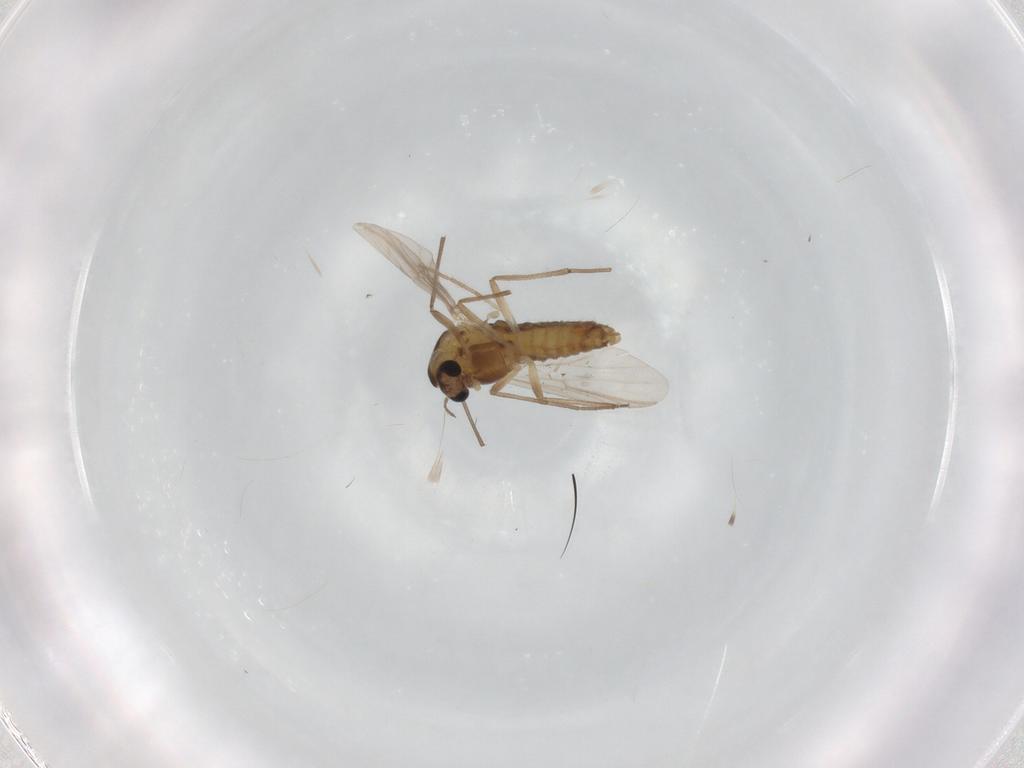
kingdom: Animalia
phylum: Arthropoda
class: Insecta
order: Diptera
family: Chironomidae
